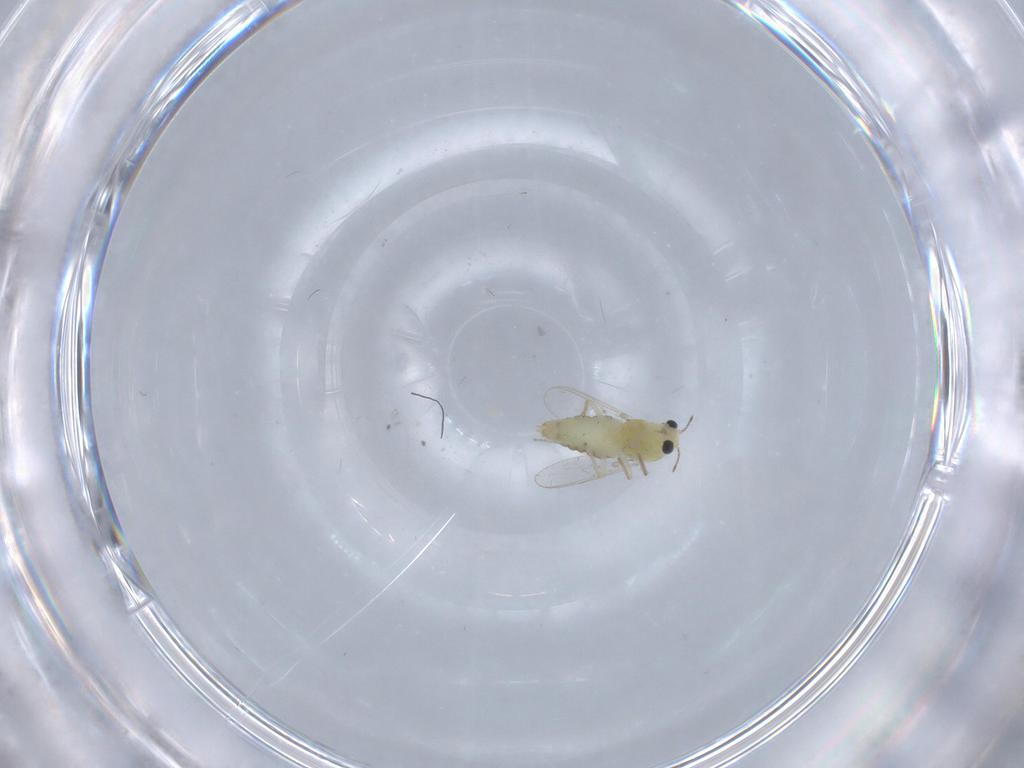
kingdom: Animalia
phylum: Arthropoda
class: Insecta
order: Diptera
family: Chironomidae
